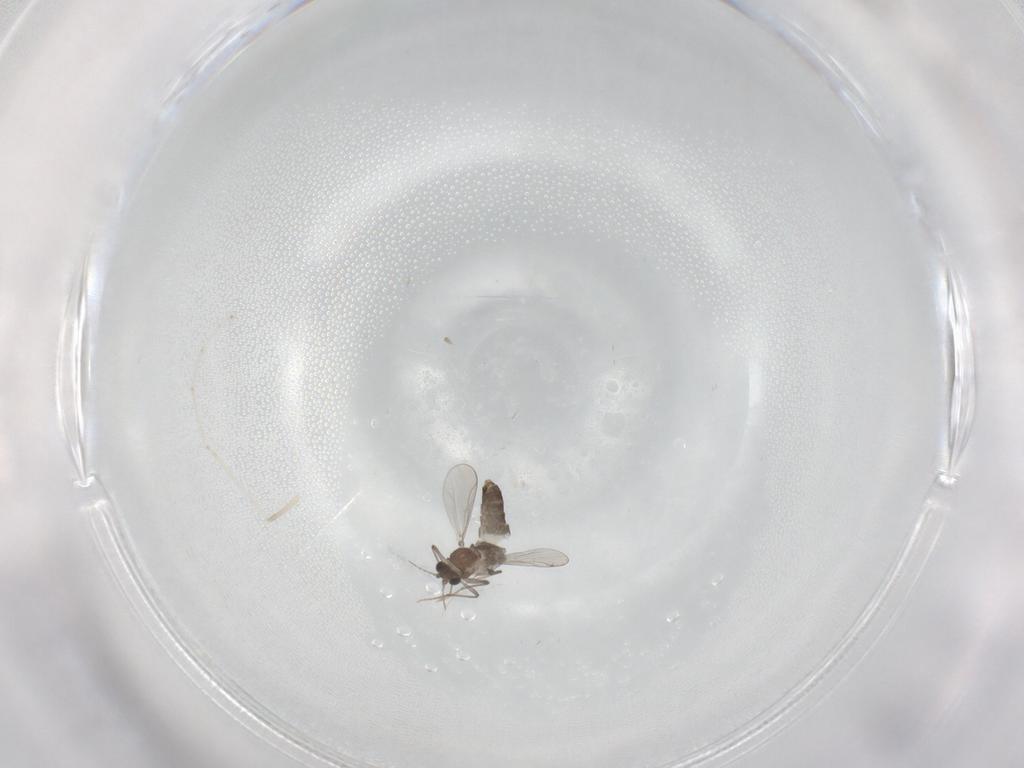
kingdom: Animalia
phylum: Arthropoda
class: Insecta
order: Diptera
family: Chironomidae
